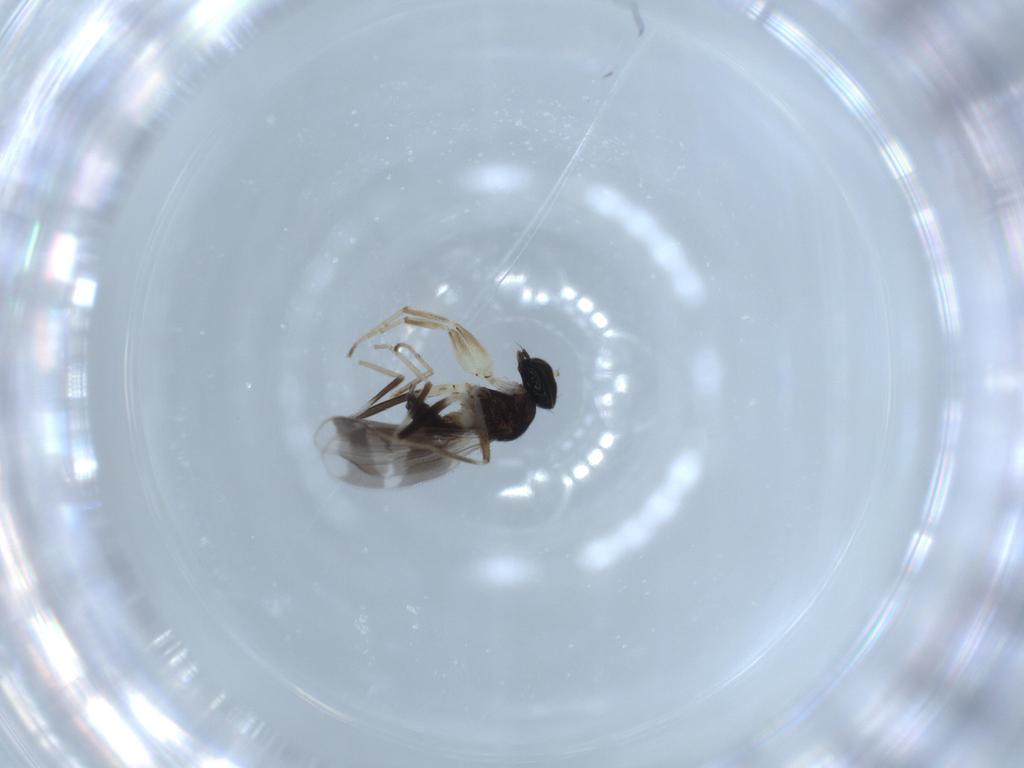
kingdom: Animalia
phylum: Arthropoda
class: Insecta
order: Diptera
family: Hybotidae
